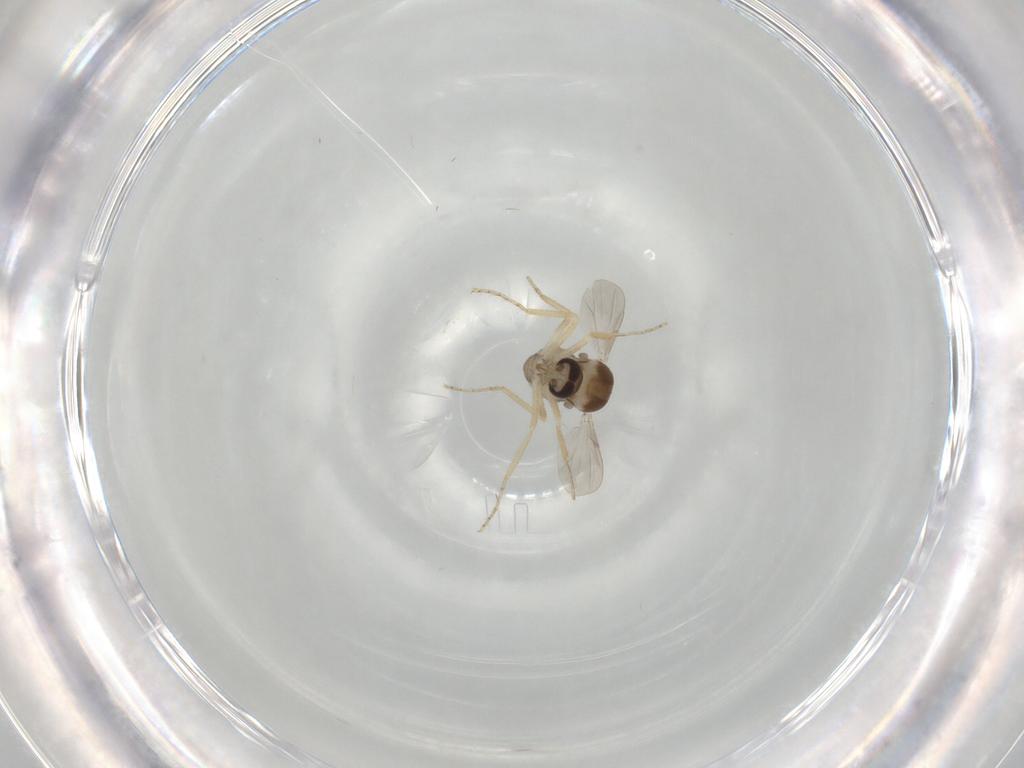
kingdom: Animalia
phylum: Arthropoda
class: Insecta
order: Diptera
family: Ceratopogonidae
